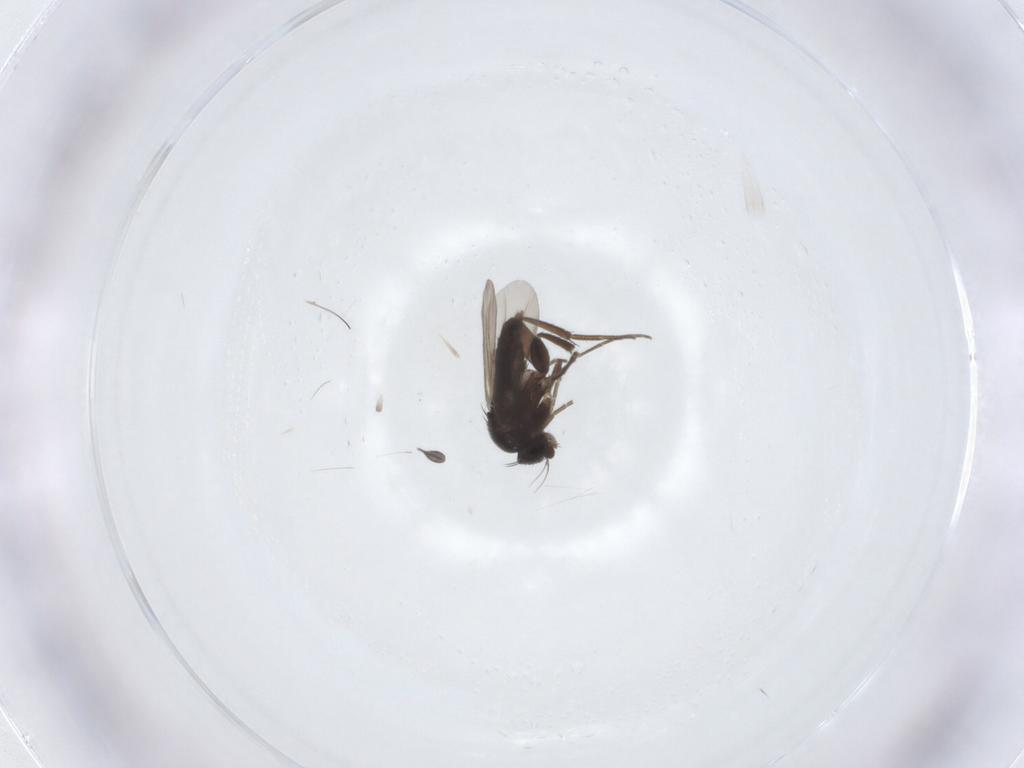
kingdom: Animalia
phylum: Arthropoda
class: Insecta
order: Diptera
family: Phoridae
